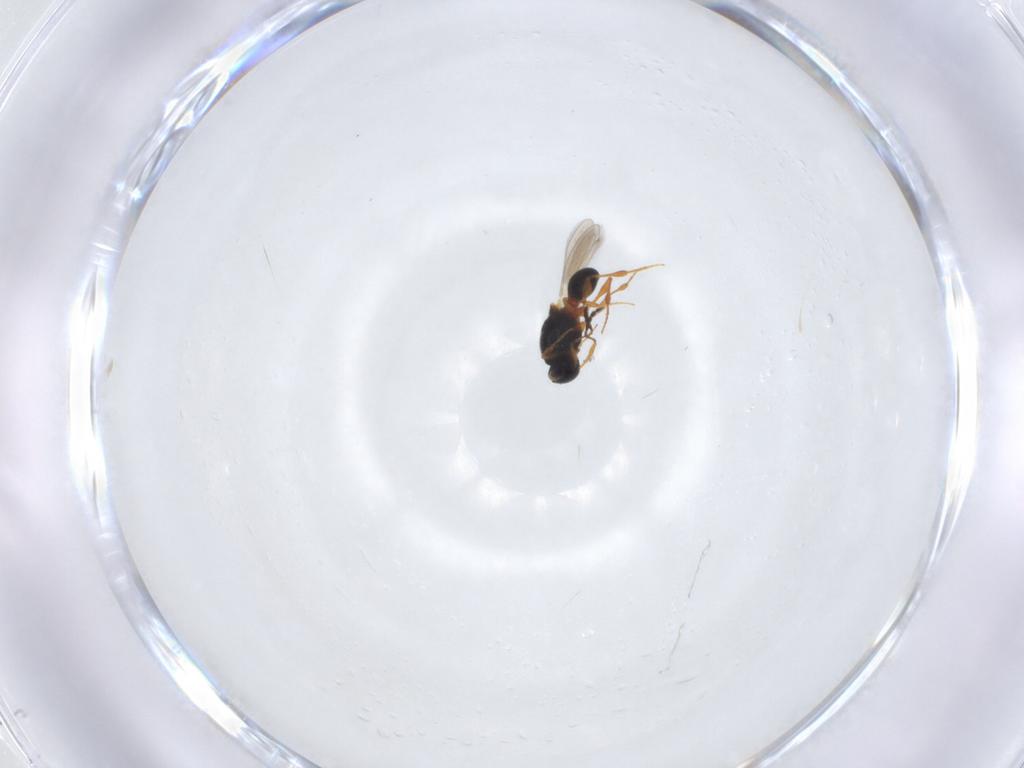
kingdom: Animalia
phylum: Arthropoda
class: Insecta
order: Hymenoptera
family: Platygastridae
